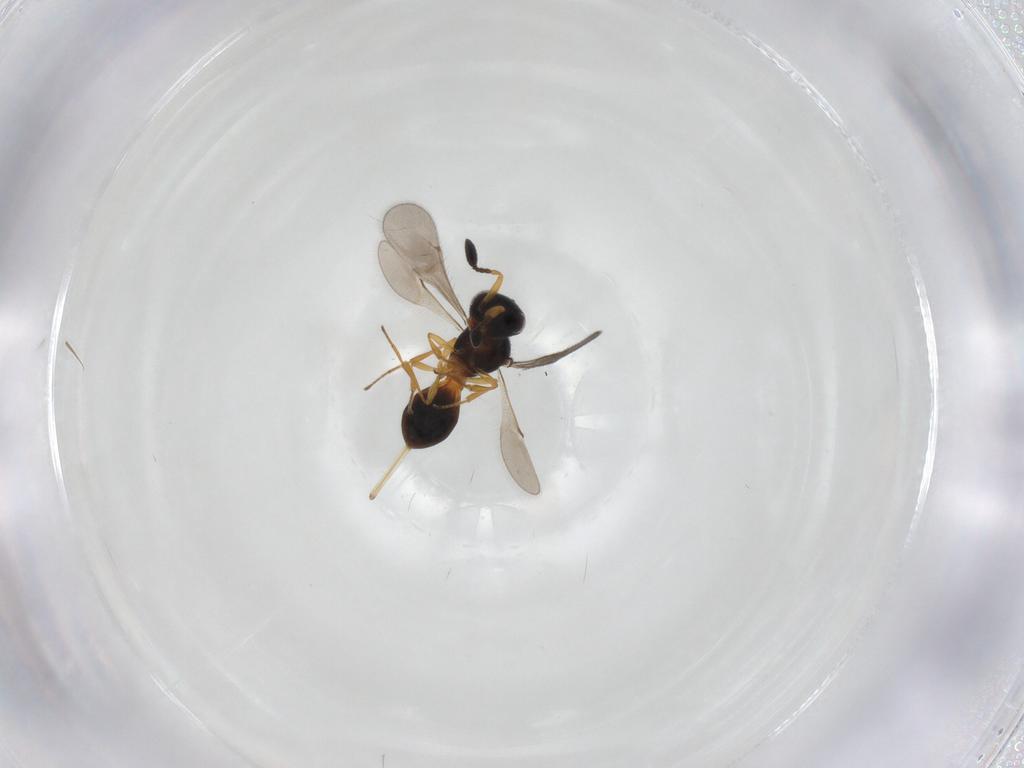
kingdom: Animalia
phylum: Arthropoda
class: Insecta
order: Hymenoptera
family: Scelionidae
